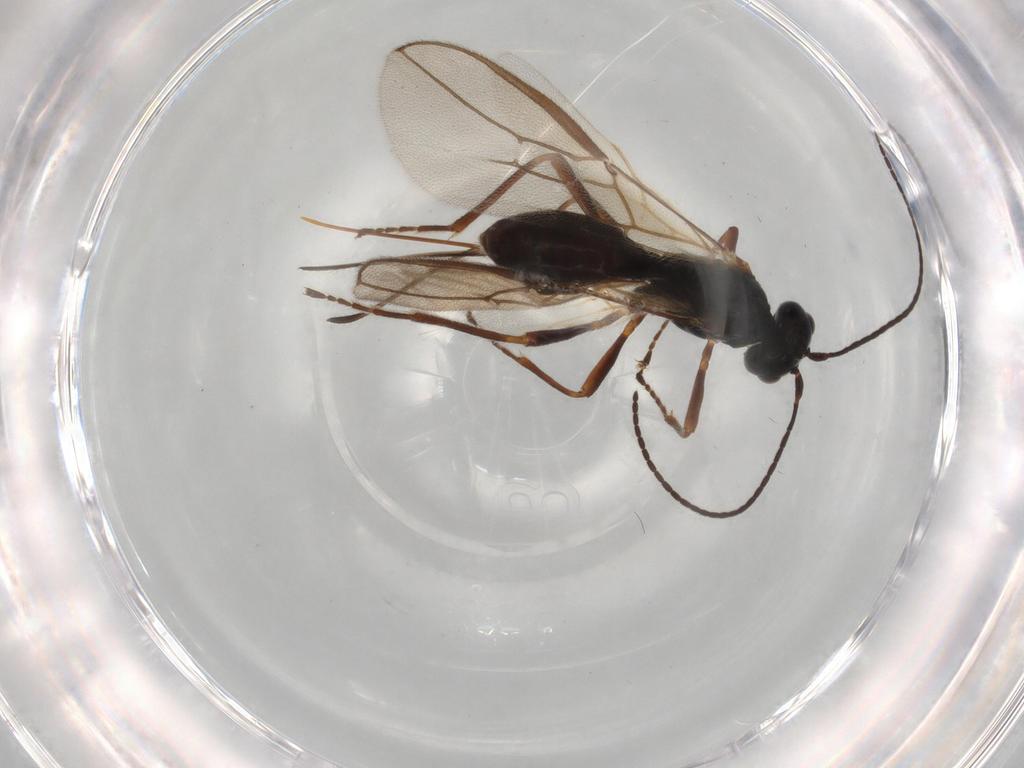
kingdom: Animalia
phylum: Arthropoda
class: Insecta
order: Hymenoptera
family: Braconidae
